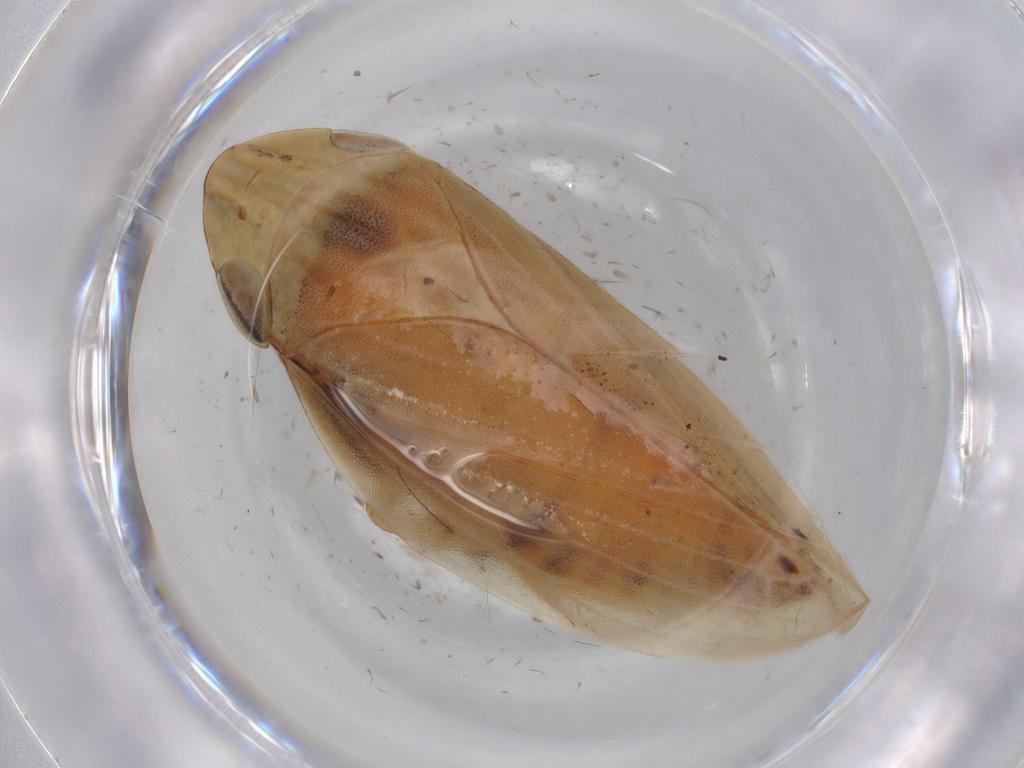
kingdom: Animalia
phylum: Arthropoda
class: Insecta
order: Hemiptera
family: Aphrophoridae
